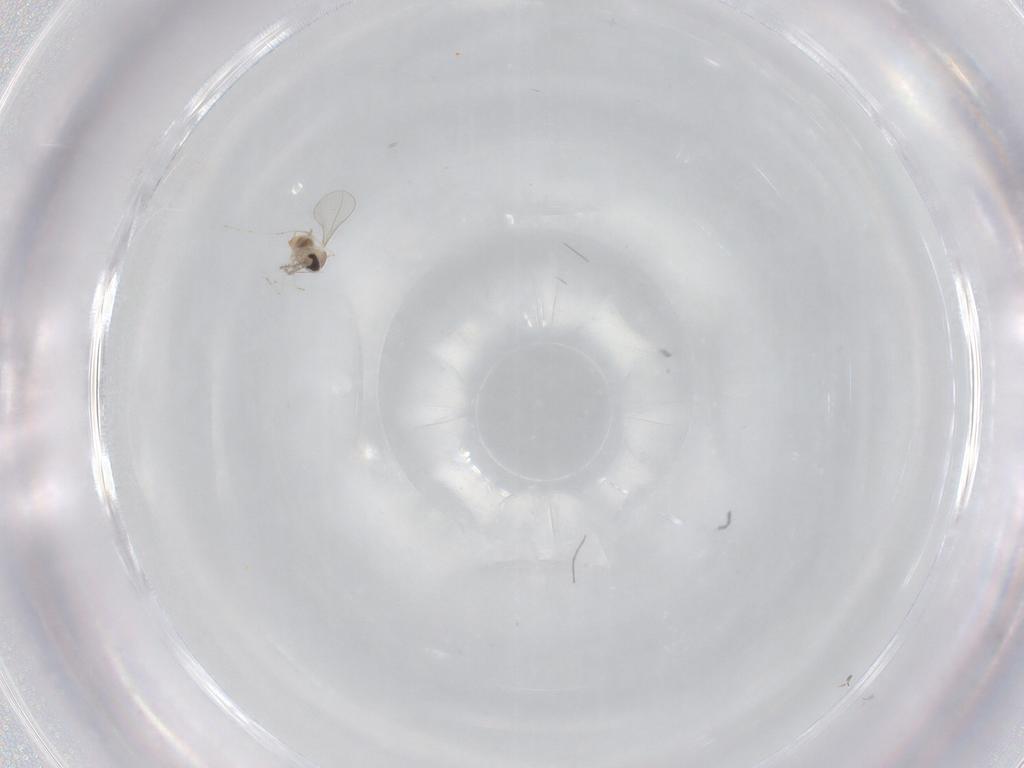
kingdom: Animalia
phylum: Arthropoda
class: Insecta
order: Diptera
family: Cecidomyiidae
